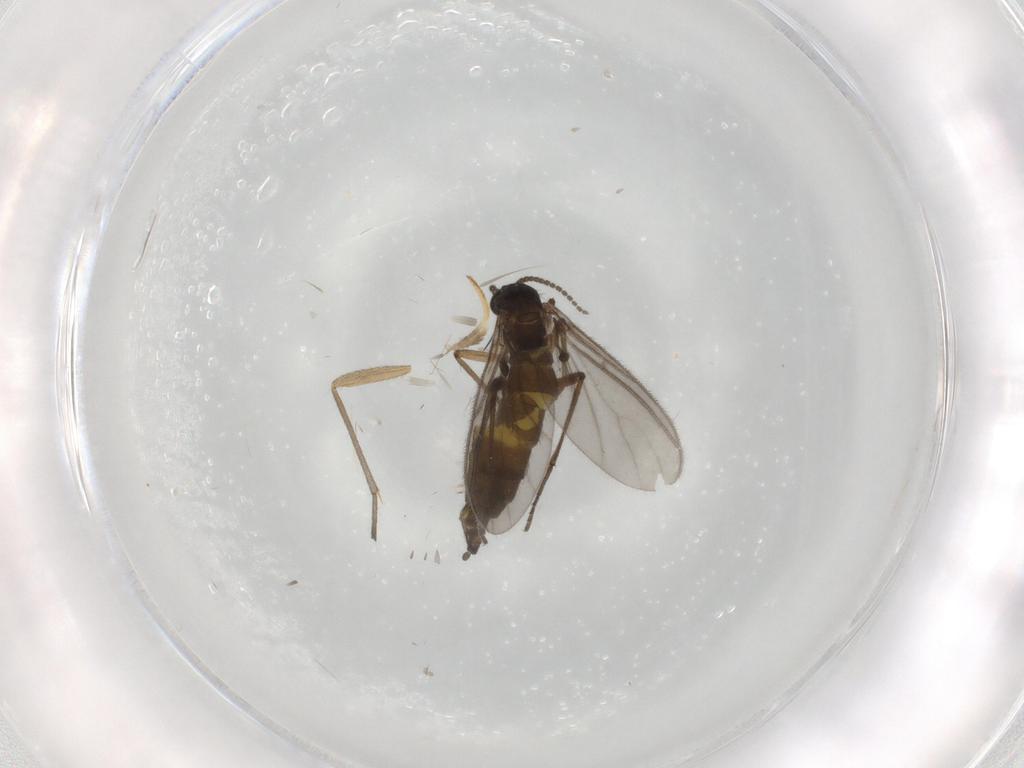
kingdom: Animalia
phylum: Arthropoda
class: Insecta
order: Diptera
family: Sciaridae
